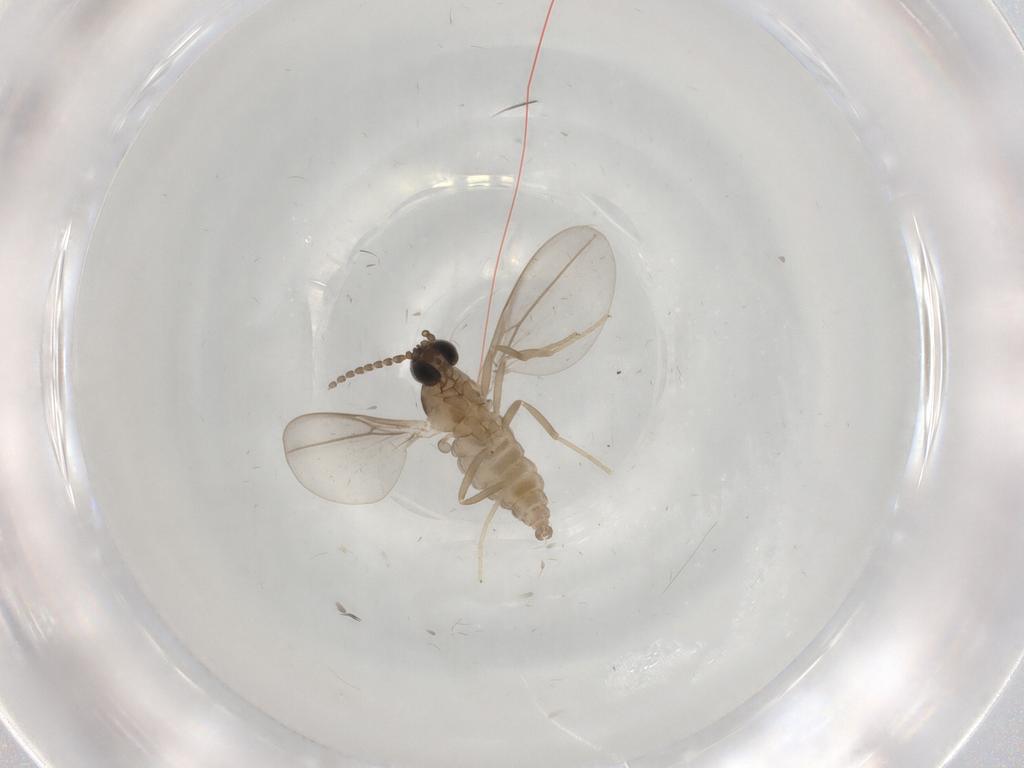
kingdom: Animalia
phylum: Arthropoda
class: Insecta
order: Diptera
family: Cecidomyiidae
